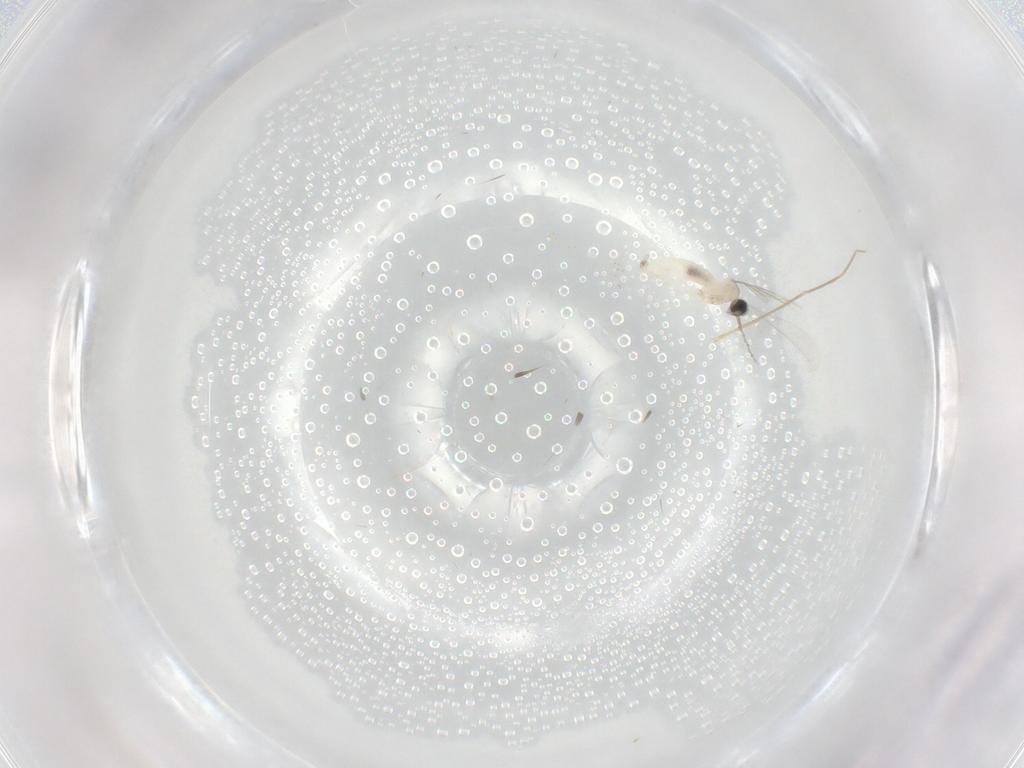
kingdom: Animalia
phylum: Arthropoda
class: Insecta
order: Diptera
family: Cecidomyiidae
